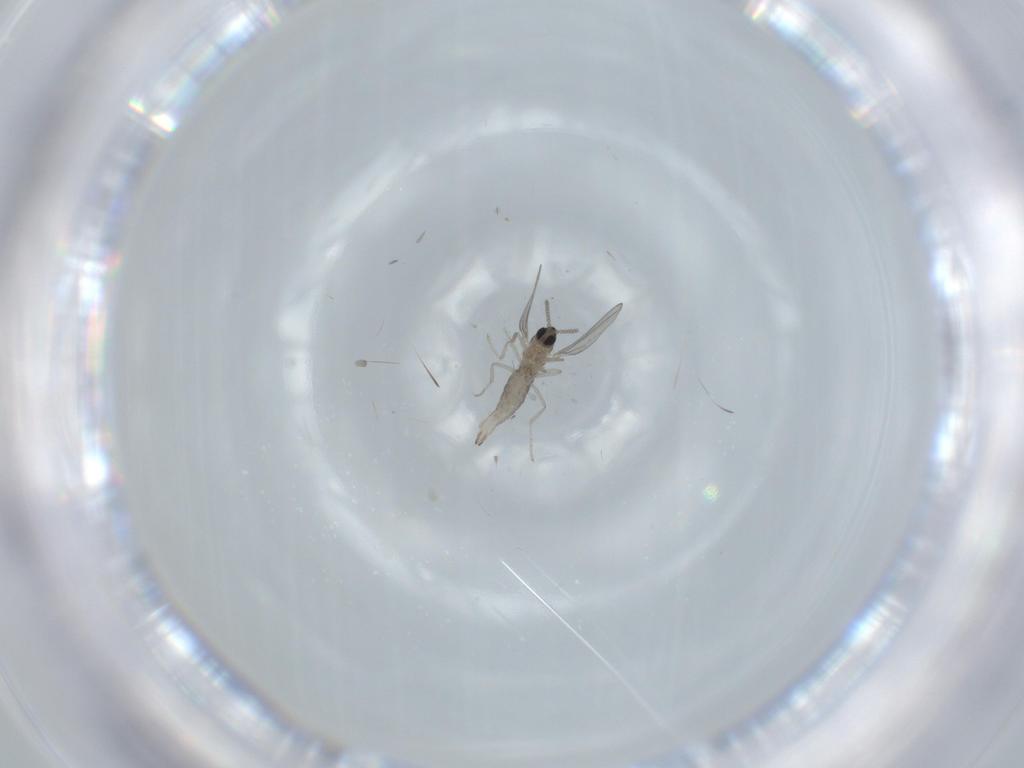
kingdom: Animalia
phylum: Arthropoda
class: Insecta
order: Diptera
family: Cecidomyiidae
